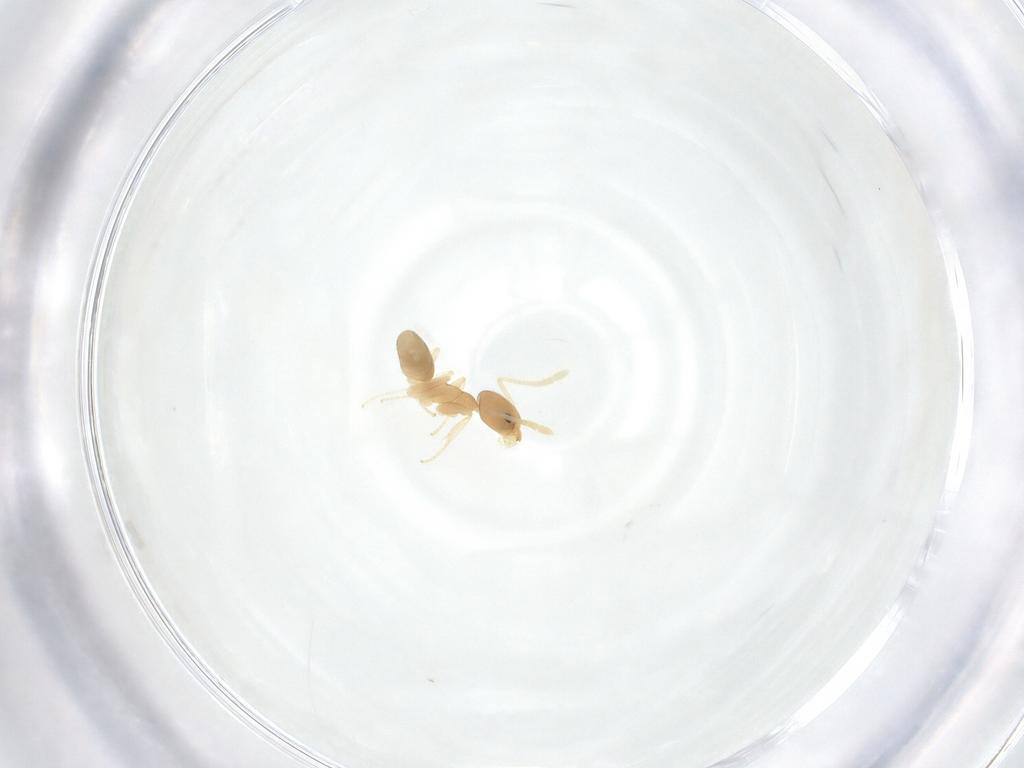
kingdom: Animalia
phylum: Arthropoda
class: Insecta
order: Hymenoptera
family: Formicidae
